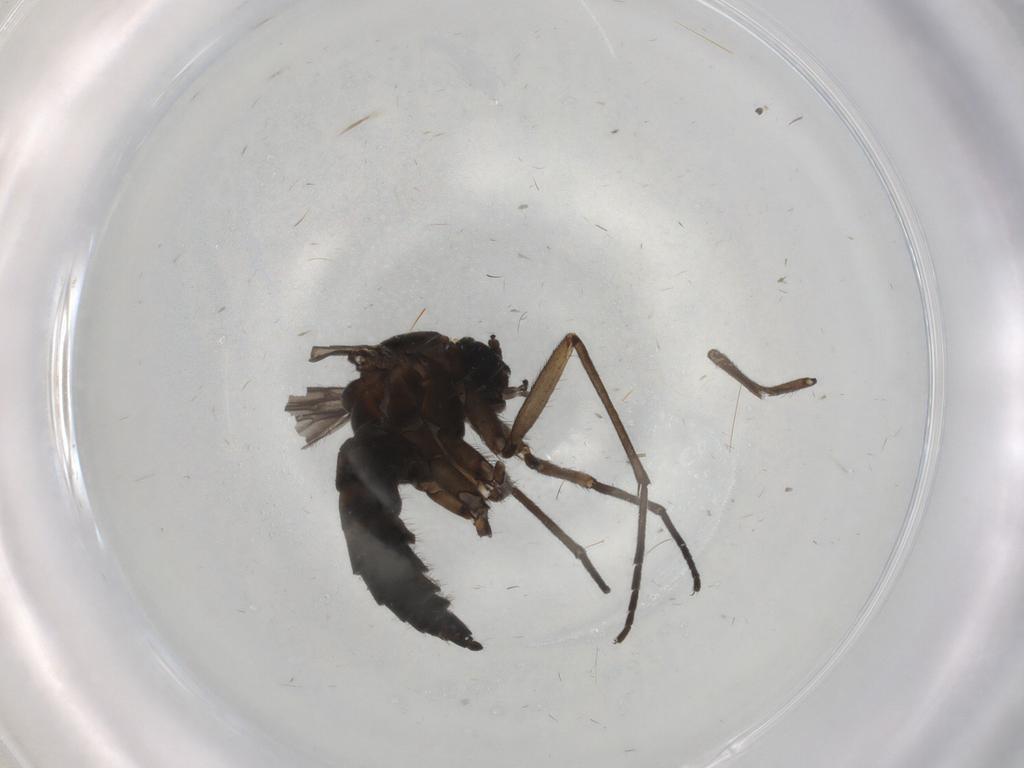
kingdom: Animalia
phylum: Arthropoda
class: Insecta
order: Diptera
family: Sciaridae
